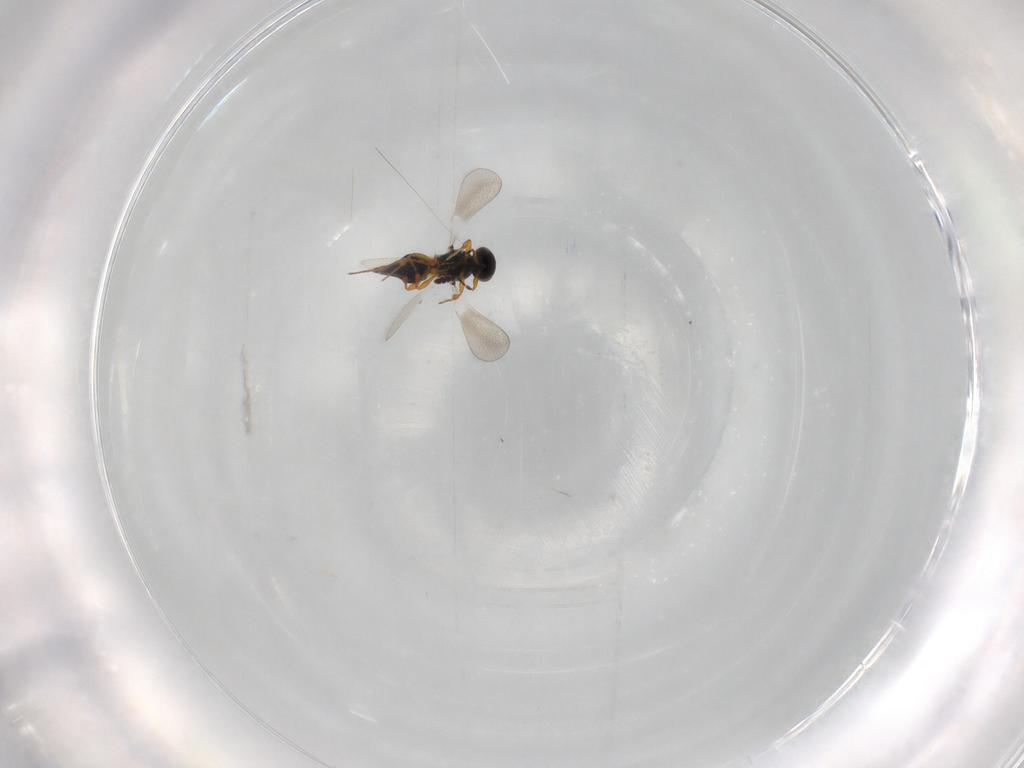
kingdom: Animalia
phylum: Arthropoda
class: Insecta
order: Hymenoptera
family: Platygastridae
